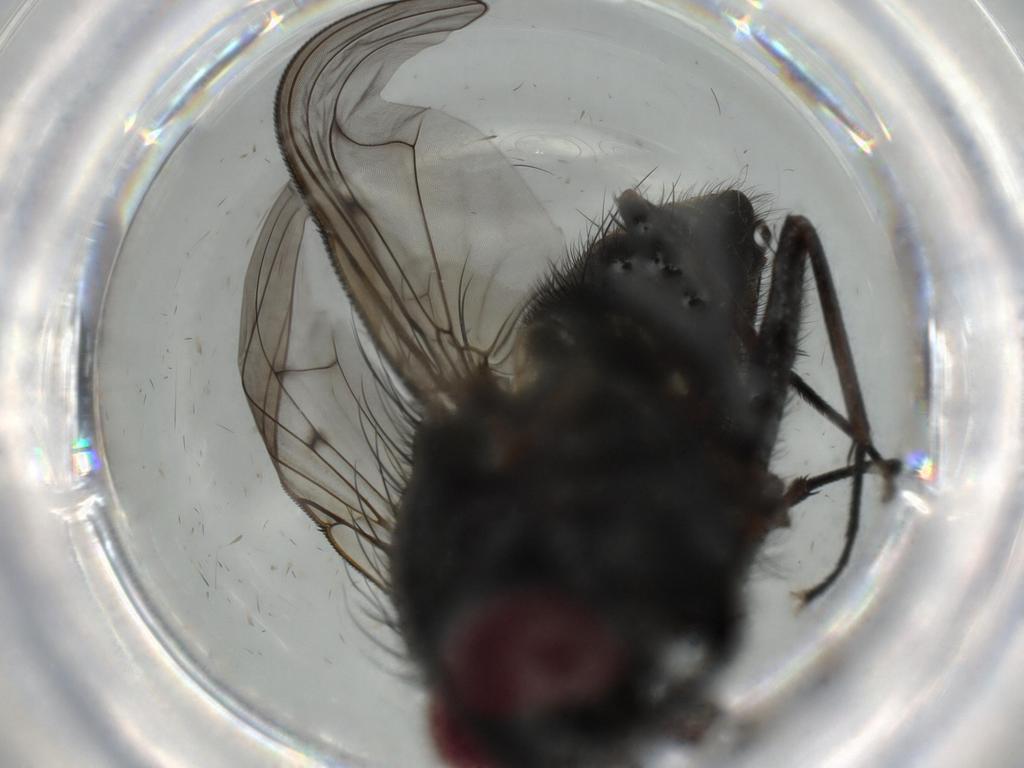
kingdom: Animalia
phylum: Arthropoda
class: Insecta
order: Diptera
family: Muscidae
